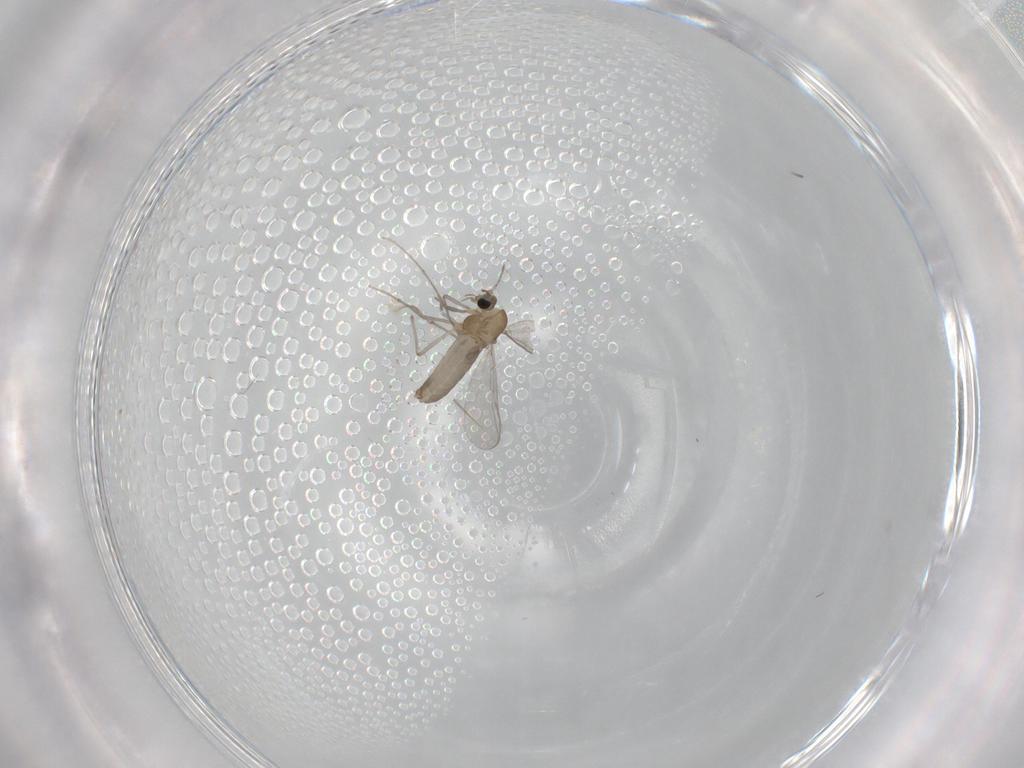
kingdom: Animalia
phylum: Arthropoda
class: Insecta
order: Diptera
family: Chironomidae
